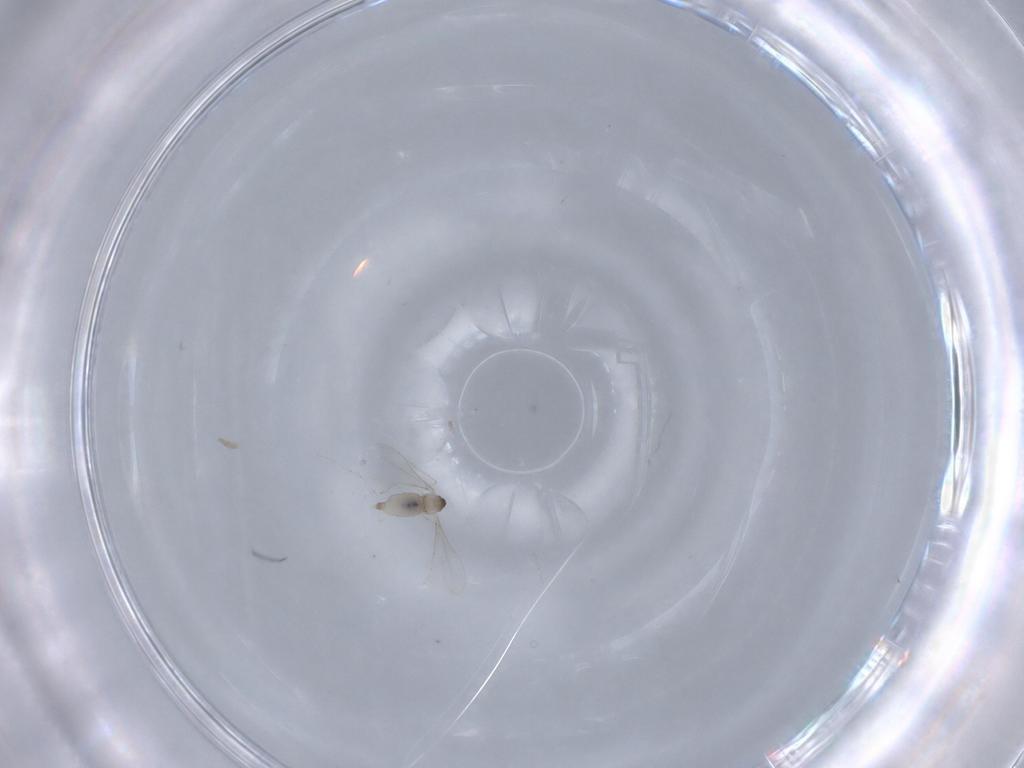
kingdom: Animalia
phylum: Arthropoda
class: Insecta
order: Diptera
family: Cecidomyiidae
